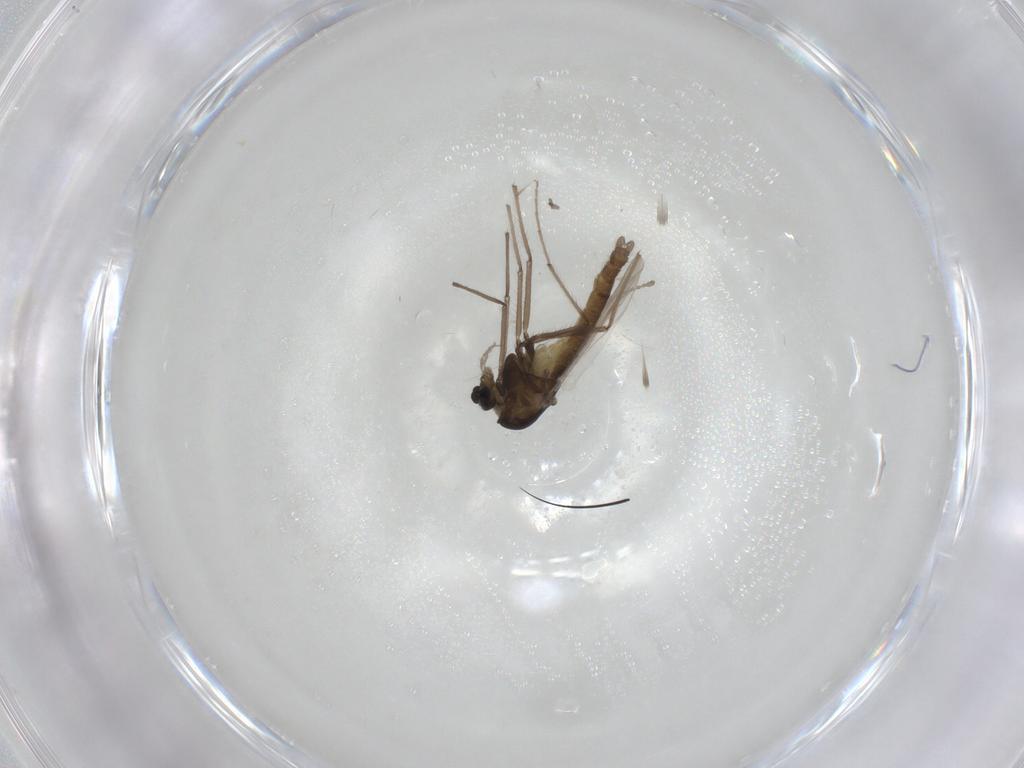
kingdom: Animalia
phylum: Arthropoda
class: Insecta
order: Diptera
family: Chironomidae
